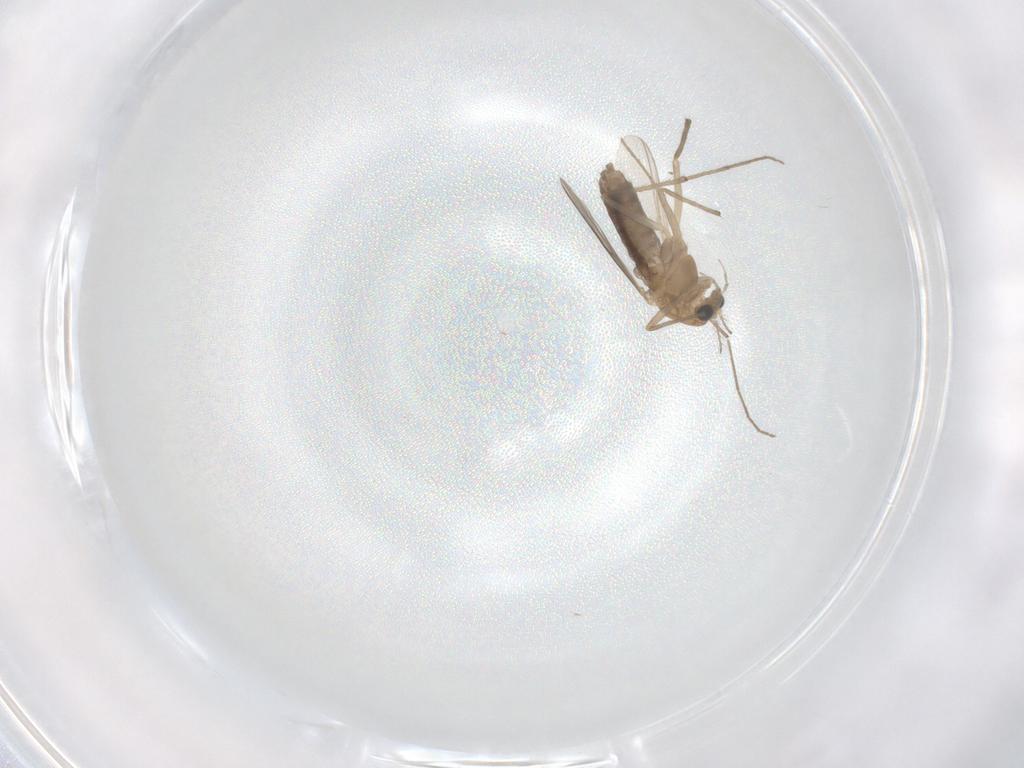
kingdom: Animalia
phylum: Arthropoda
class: Insecta
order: Diptera
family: Chironomidae
